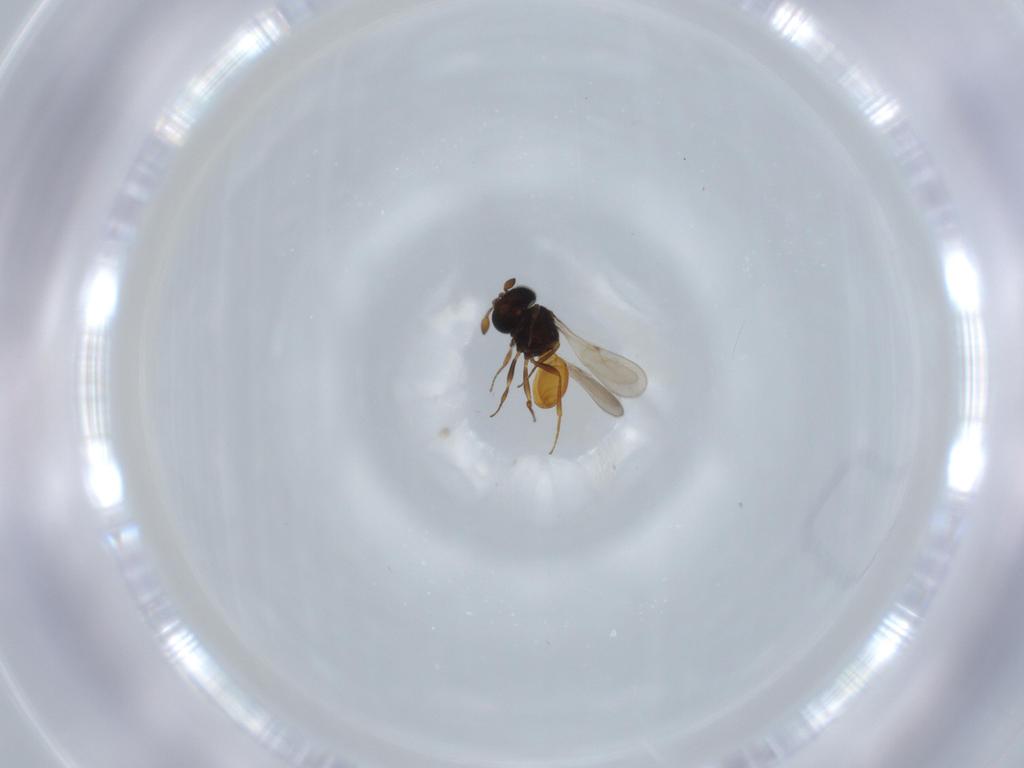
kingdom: Animalia
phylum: Arthropoda
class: Insecta
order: Hymenoptera
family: Scelionidae
